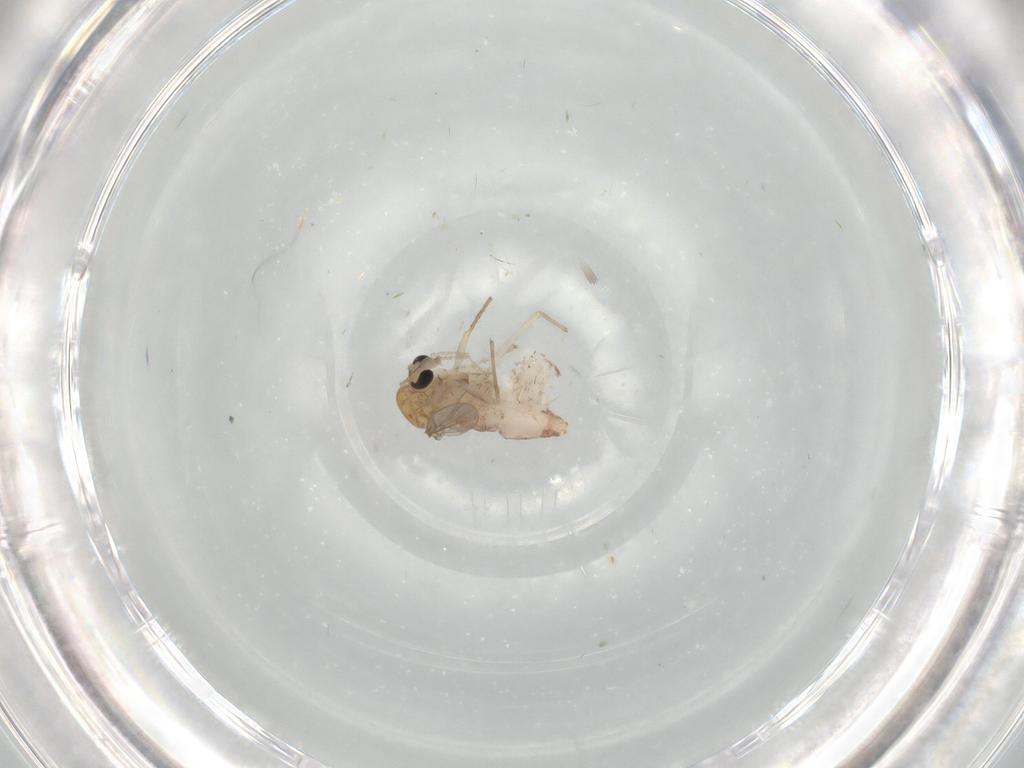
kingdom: Animalia
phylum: Arthropoda
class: Insecta
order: Diptera
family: Chironomidae
